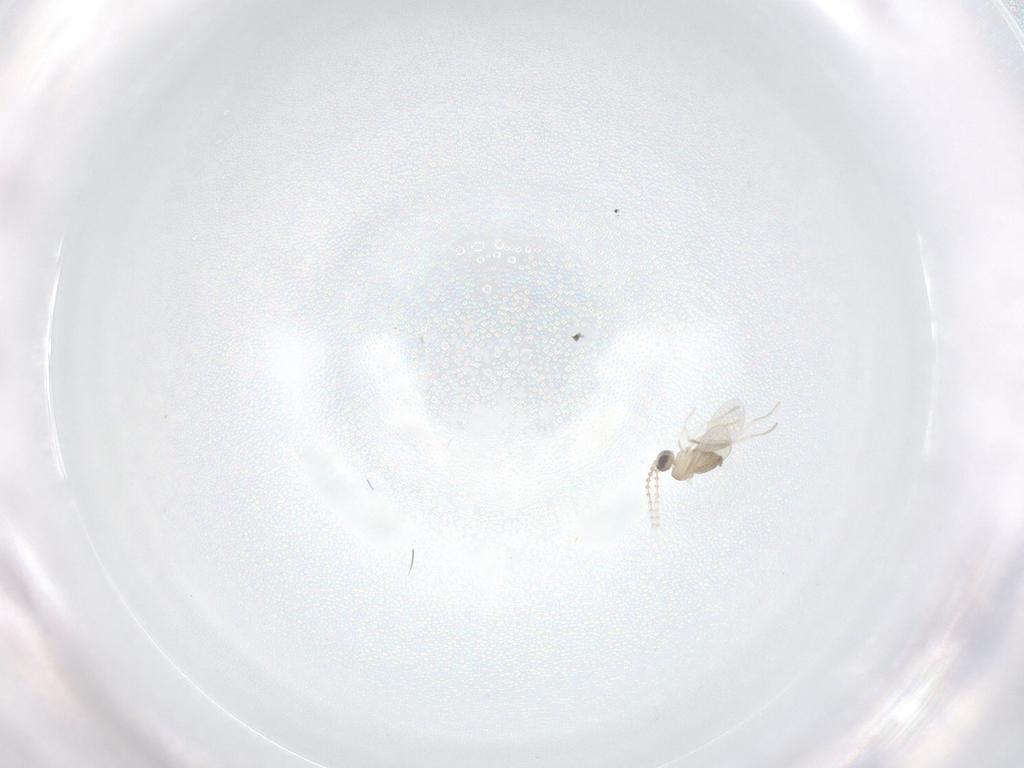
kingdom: Animalia
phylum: Arthropoda
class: Insecta
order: Diptera
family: Cecidomyiidae
